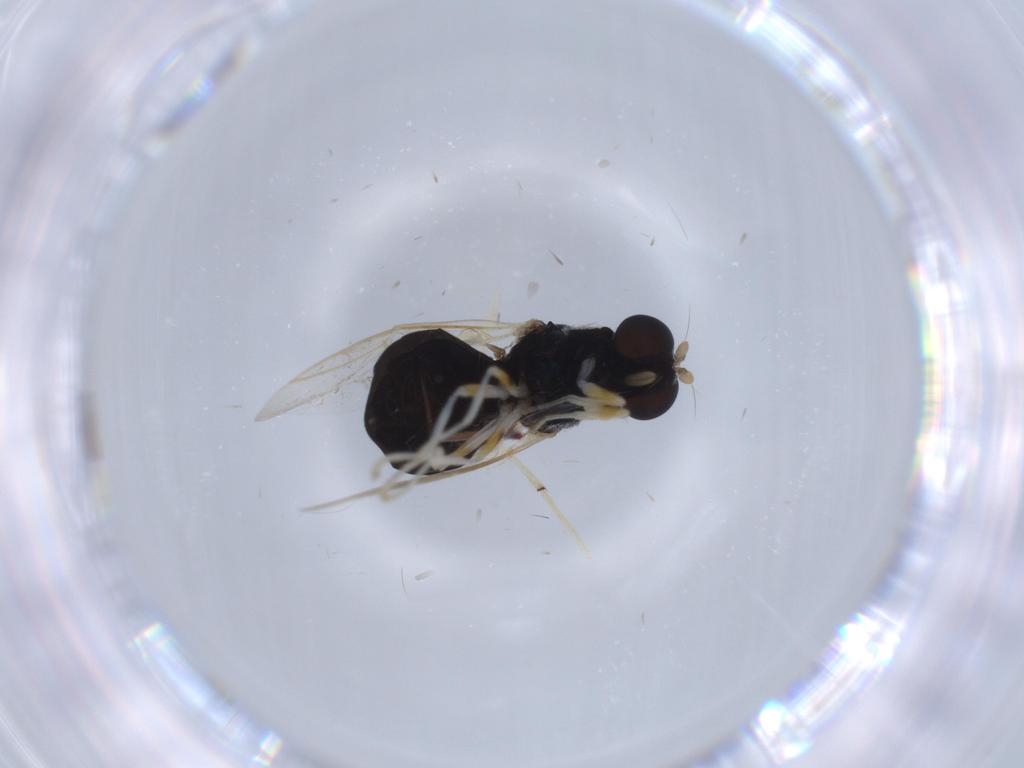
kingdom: Animalia
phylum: Arthropoda
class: Insecta
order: Diptera
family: Stratiomyidae
